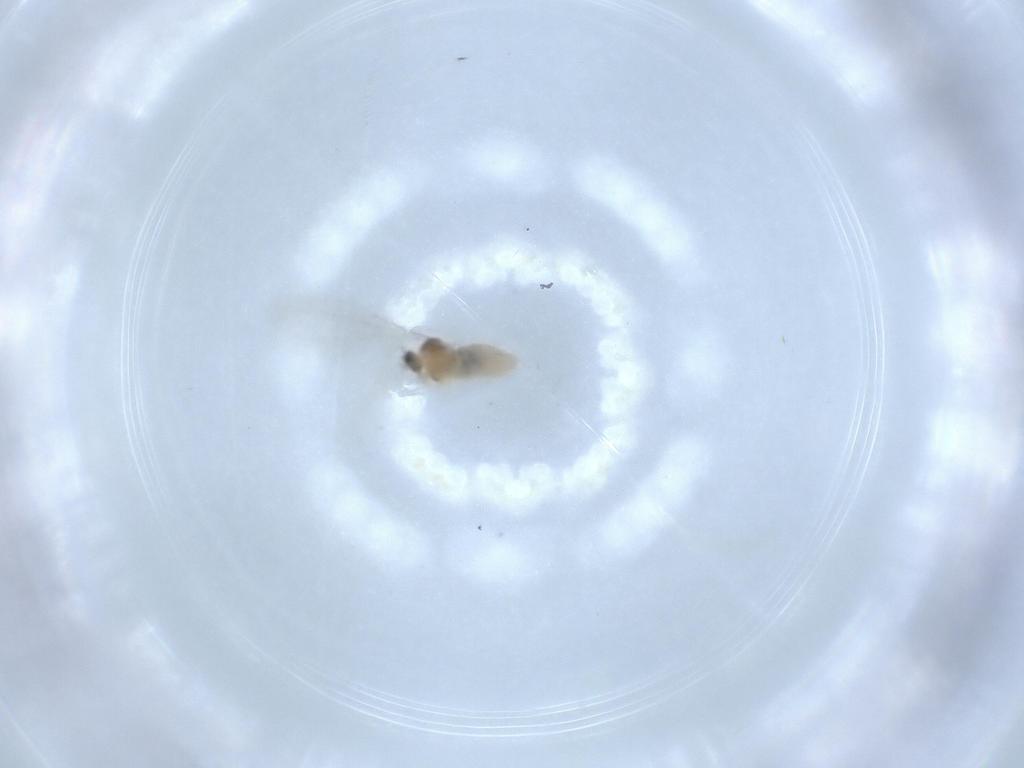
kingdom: Animalia
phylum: Arthropoda
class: Insecta
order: Diptera
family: Cecidomyiidae
